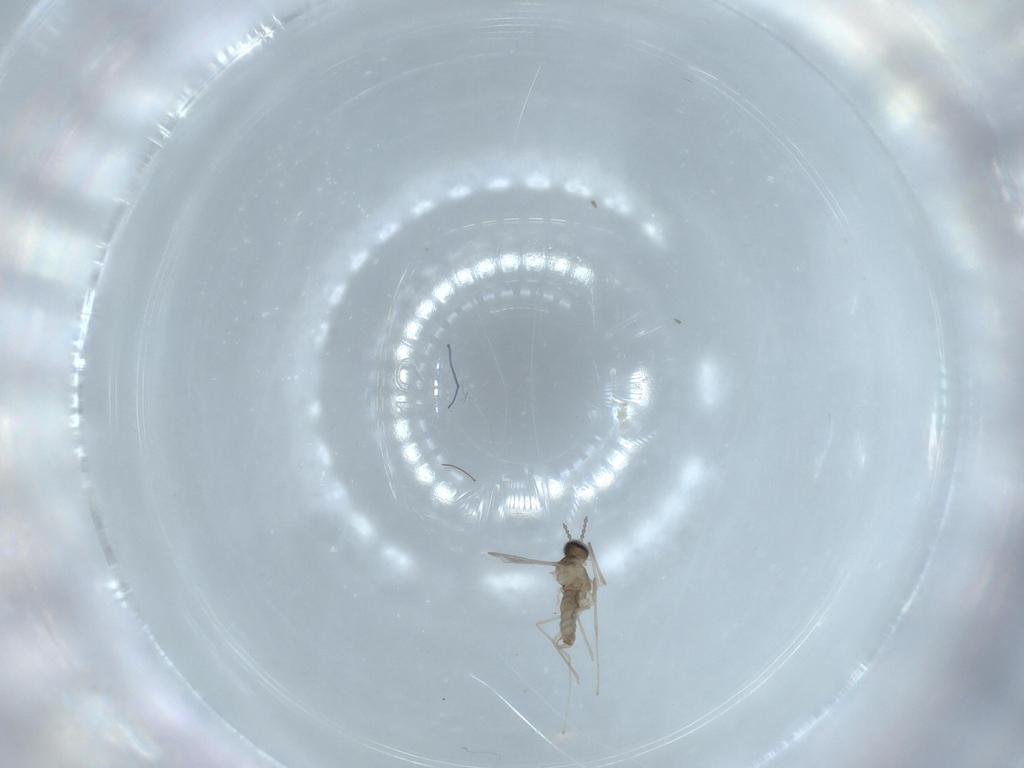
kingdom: Animalia
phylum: Arthropoda
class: Insecta
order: Diptera
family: Cecidomyiidae
